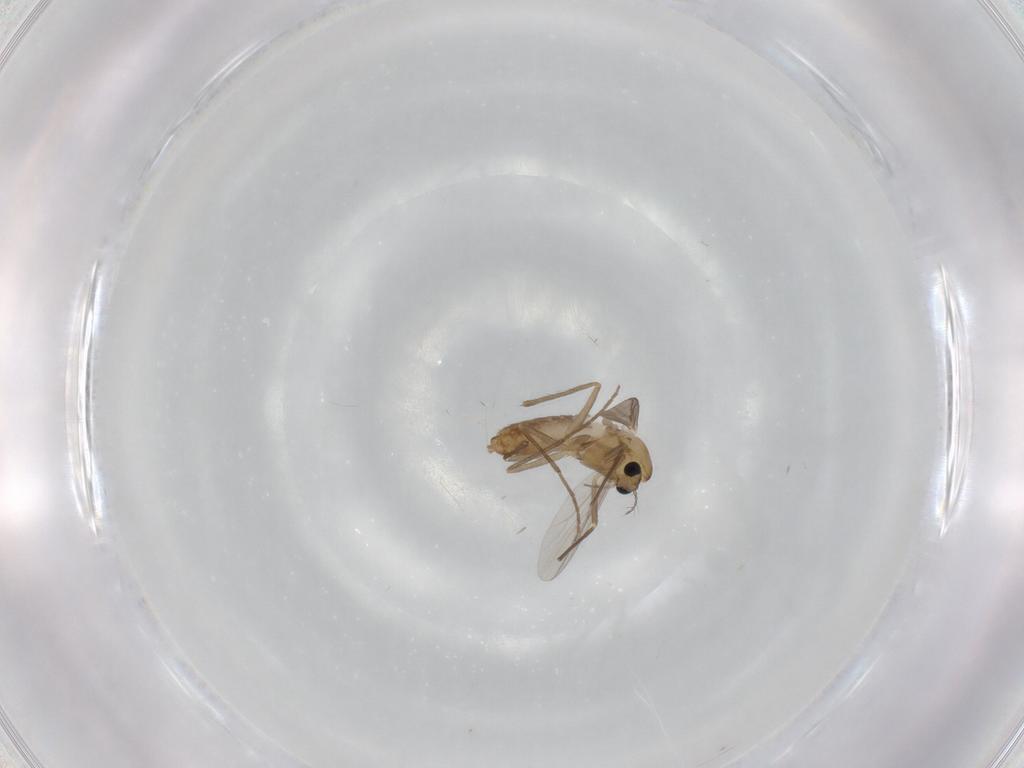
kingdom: Animalia
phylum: Arthropoda
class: Insecta
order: Diptera
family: Chironomidae
